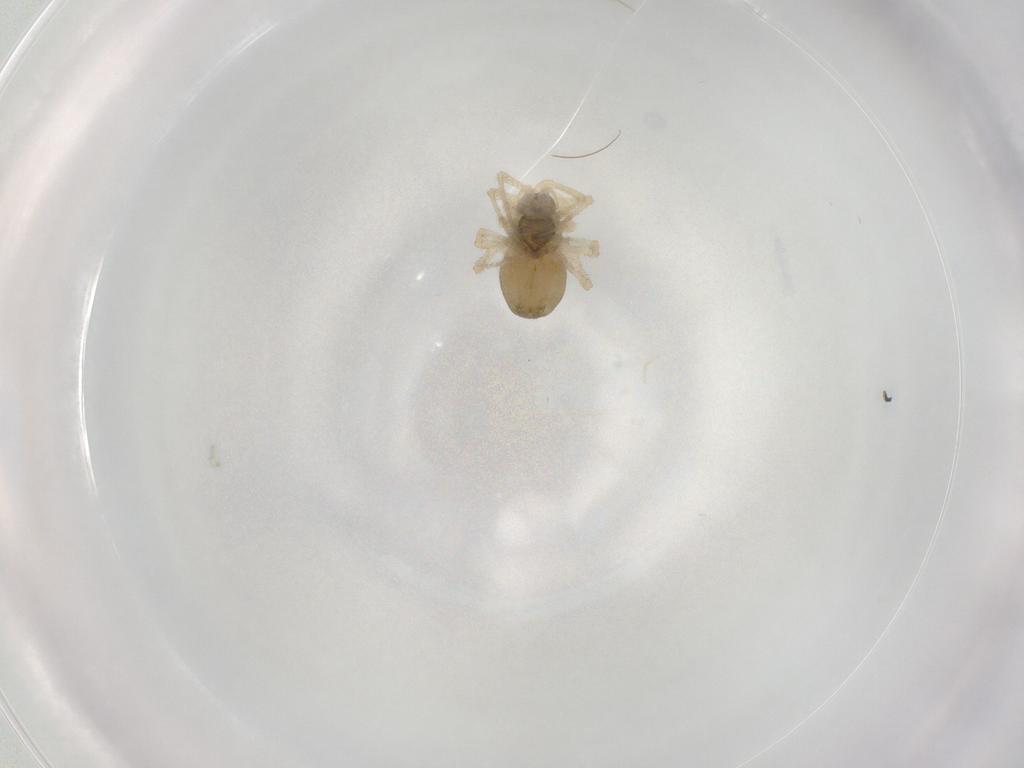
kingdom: Animalia
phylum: Arthropoda
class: Arachnida
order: Araneae
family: Linyphiidae
